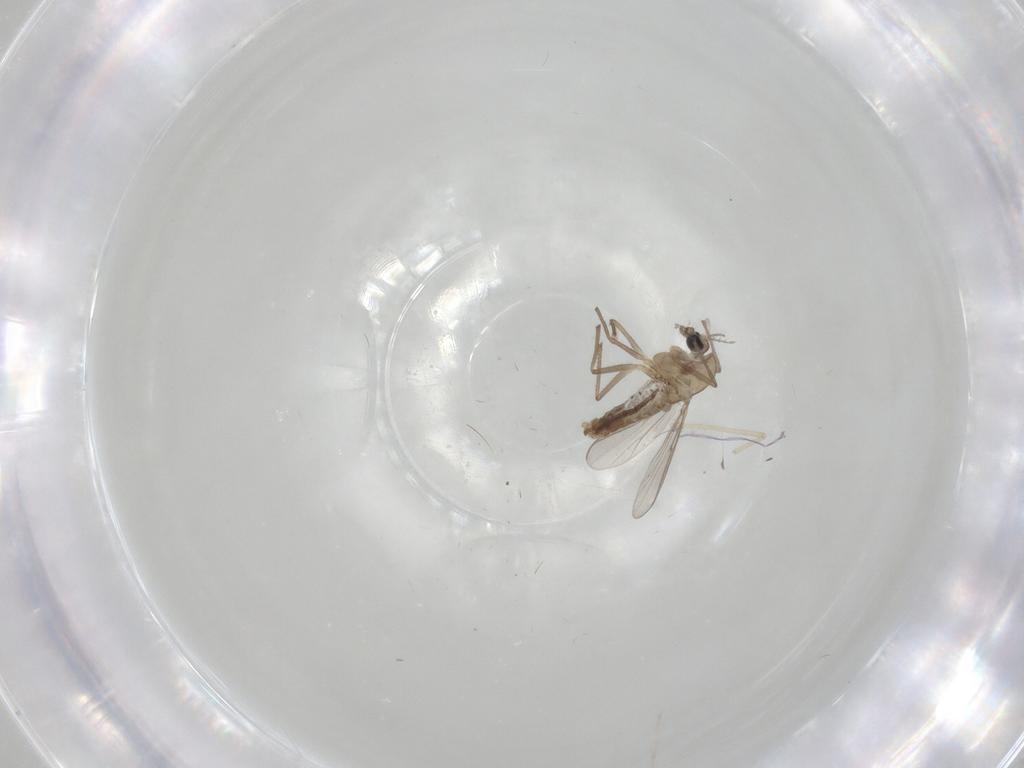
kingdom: Animalia
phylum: Arthropoda
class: Insecta
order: Diptera
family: Chironomidae
